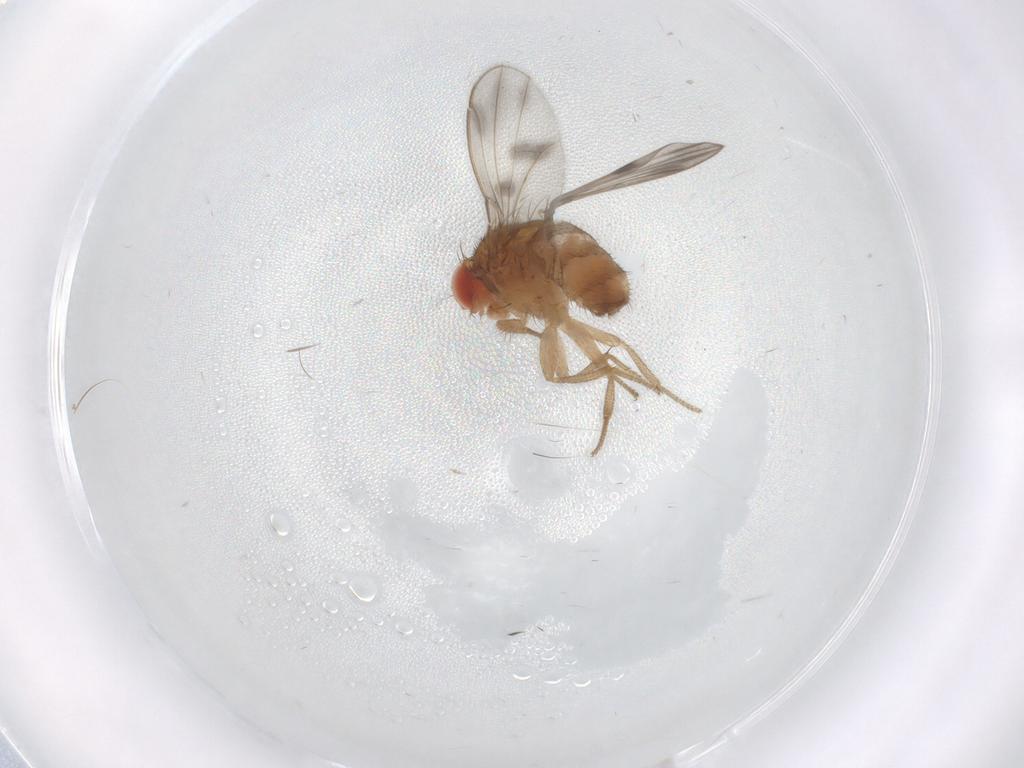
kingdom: Animalia
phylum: Arthropoda
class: Insecta
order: Diptera
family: Drosophilidae
